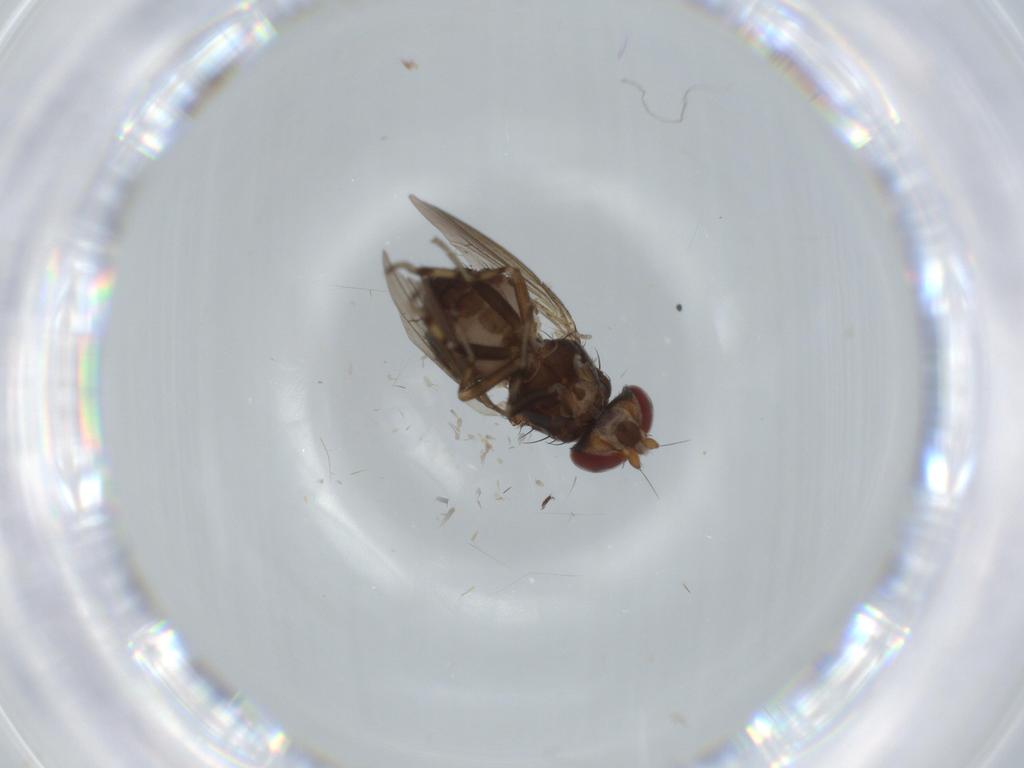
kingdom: Animalia
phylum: Arthropoda
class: Insecta
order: Diptera
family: Heleomyzidae
